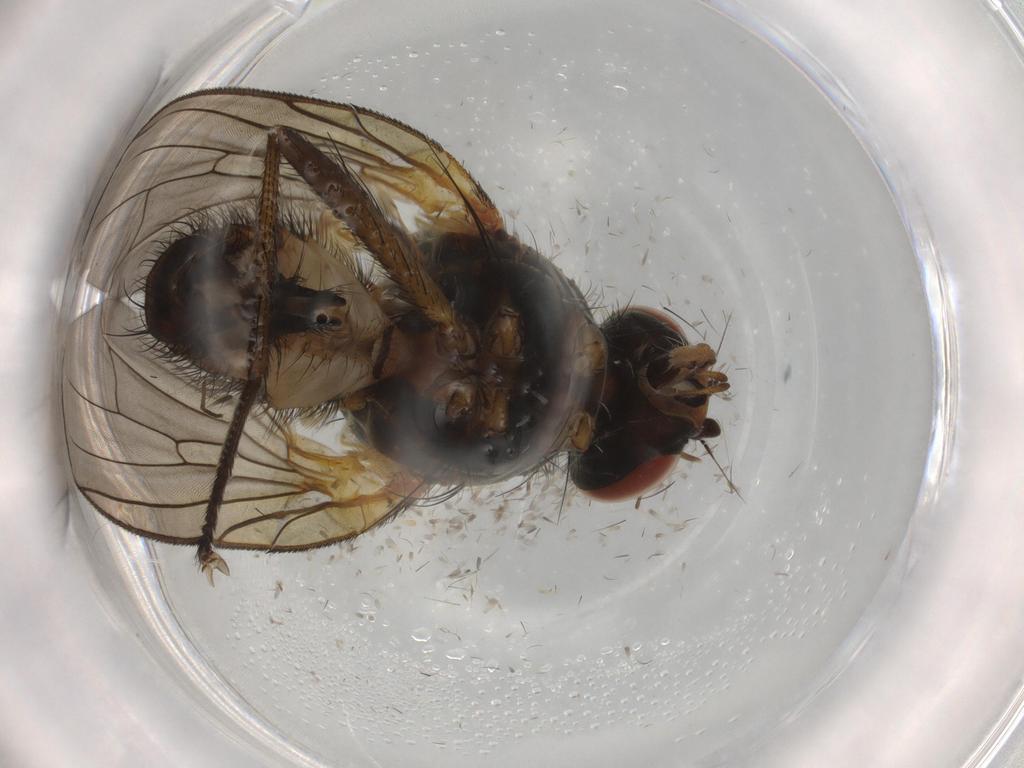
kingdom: Animalia
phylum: Arthropoda
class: Insecta
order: Diptera
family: Anthomyiidae
